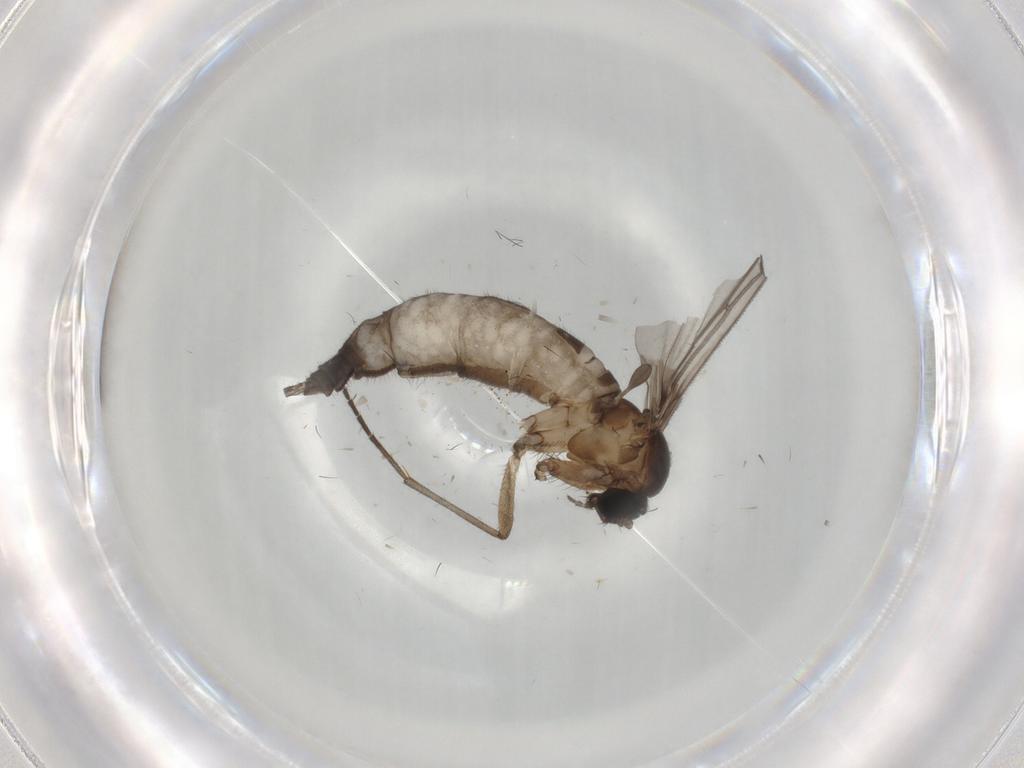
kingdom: Animalia
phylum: Arthropoda
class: Insecta
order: Diptera
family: Sciaridae
